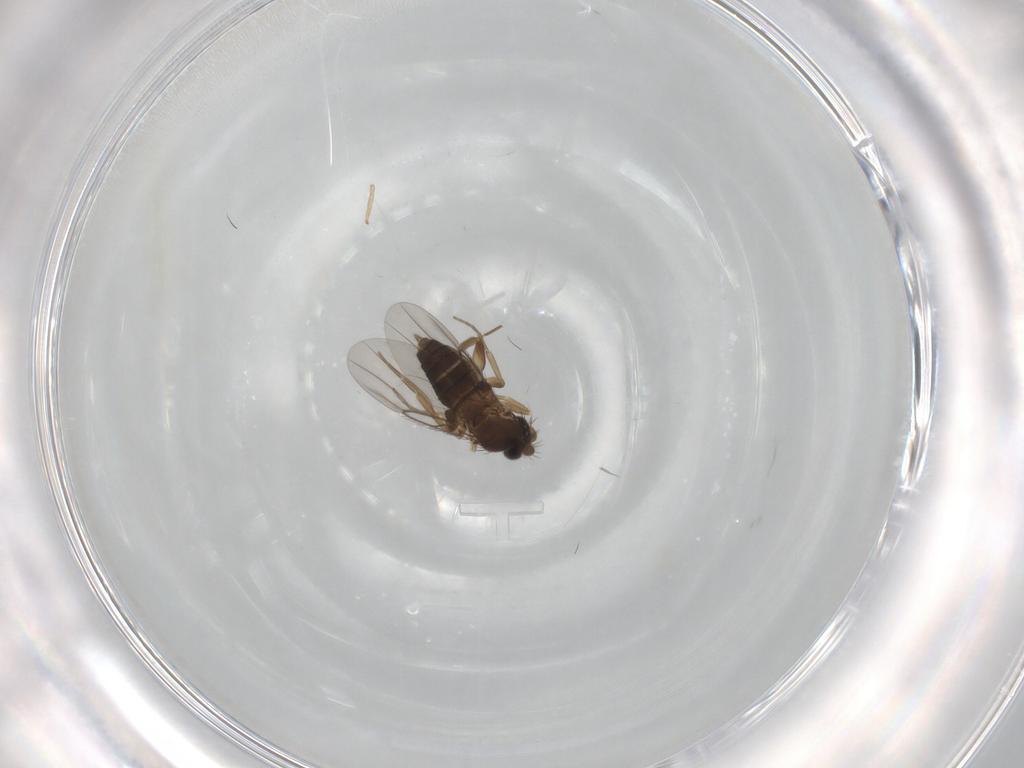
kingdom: Animalia
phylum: Arthropoda
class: Insecta
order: Diptera
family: Phoridae
